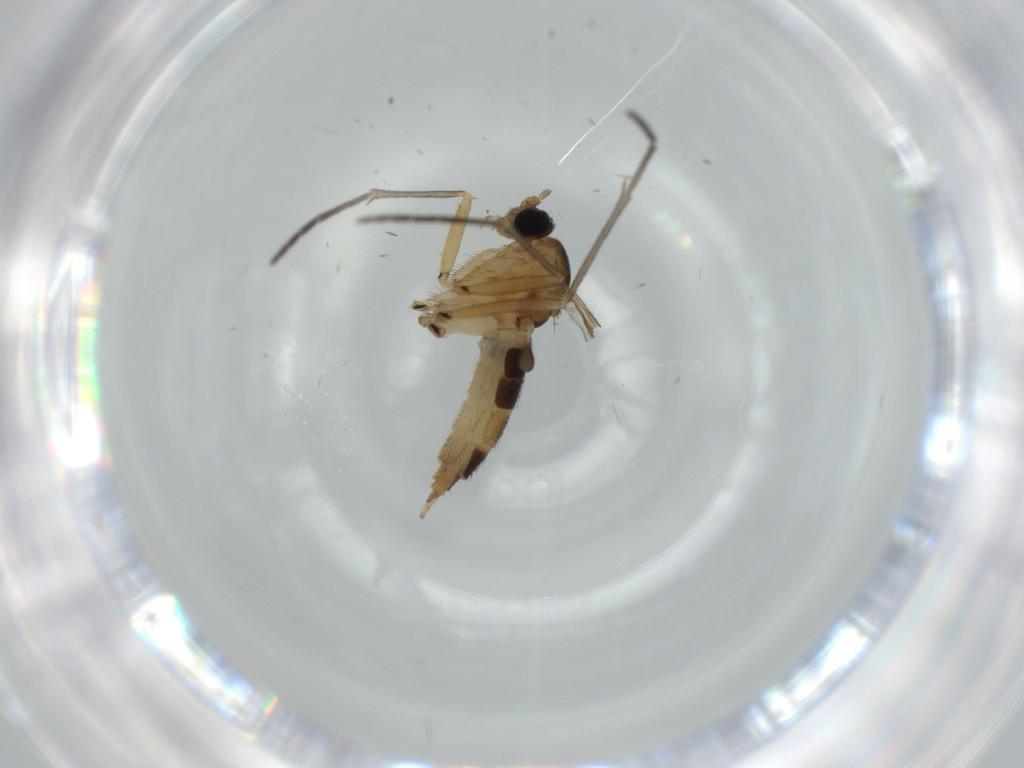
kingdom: Animalia
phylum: Arthropoda
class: Insecta
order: Diptera
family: Sciaridae
